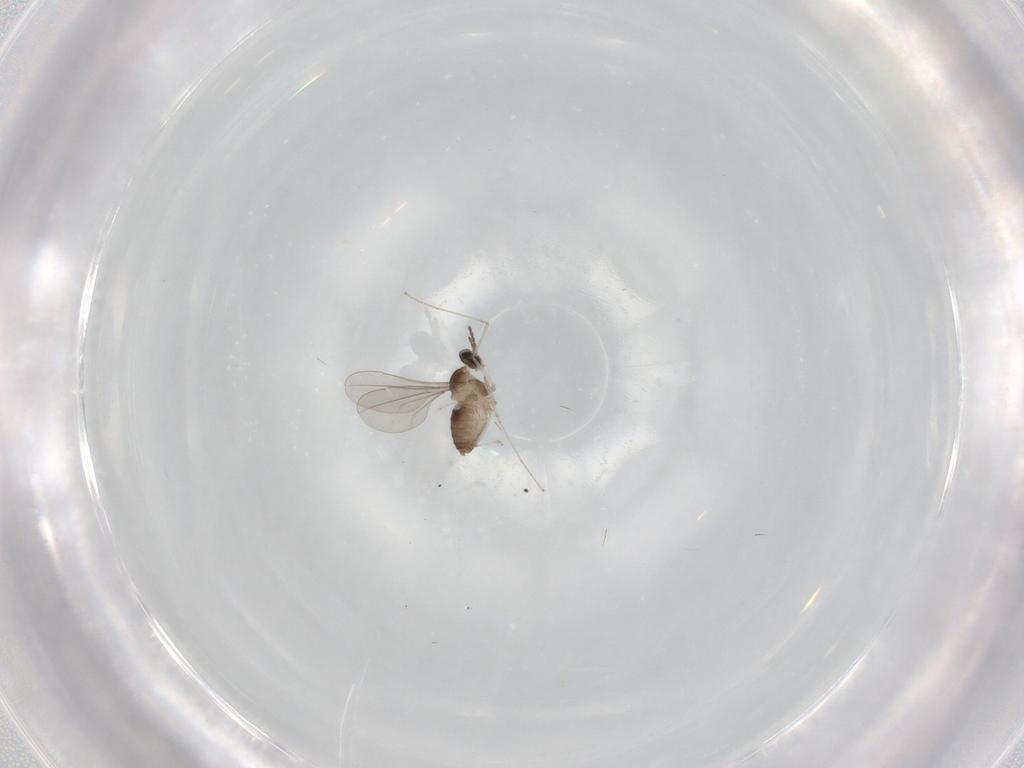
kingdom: Animalia
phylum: Arthropoda
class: Insecta
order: Diptera
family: Cecidomyiidae
